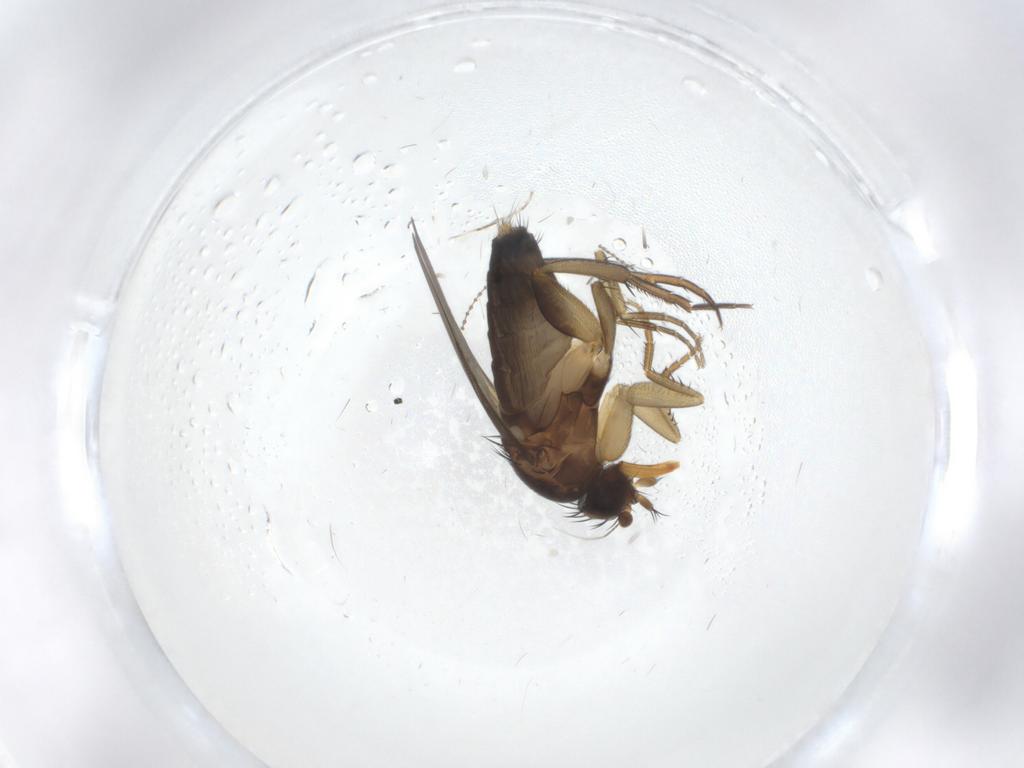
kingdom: Animalia
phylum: Arthropoda
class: Insecta
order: Diptera
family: Phoridae
